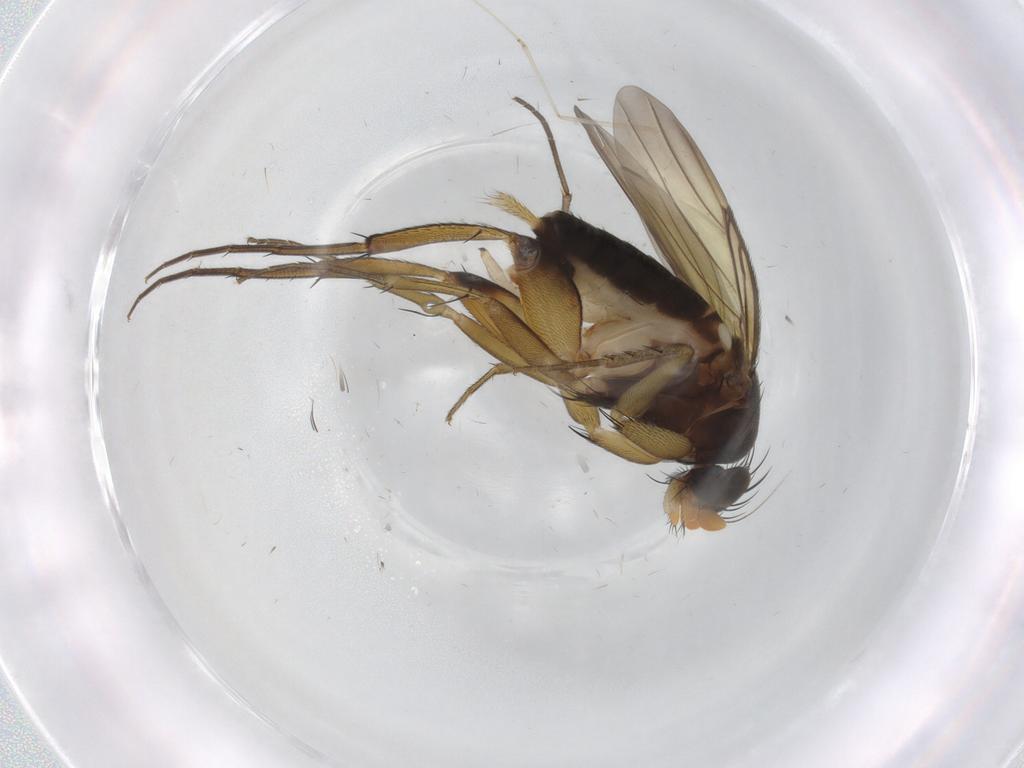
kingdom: Animalia
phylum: Arthropoda
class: Insecta
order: Diptera
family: Phoridae
